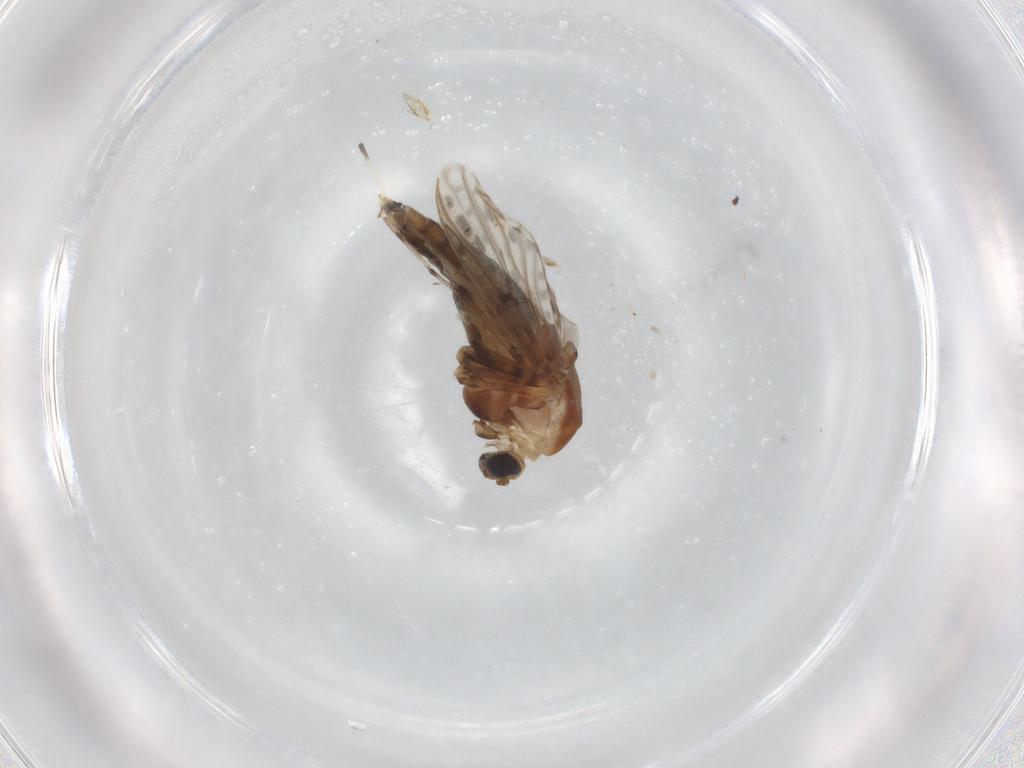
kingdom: Animalia
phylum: Arthropoda
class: Insecta
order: Diptera
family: Chironomidae
